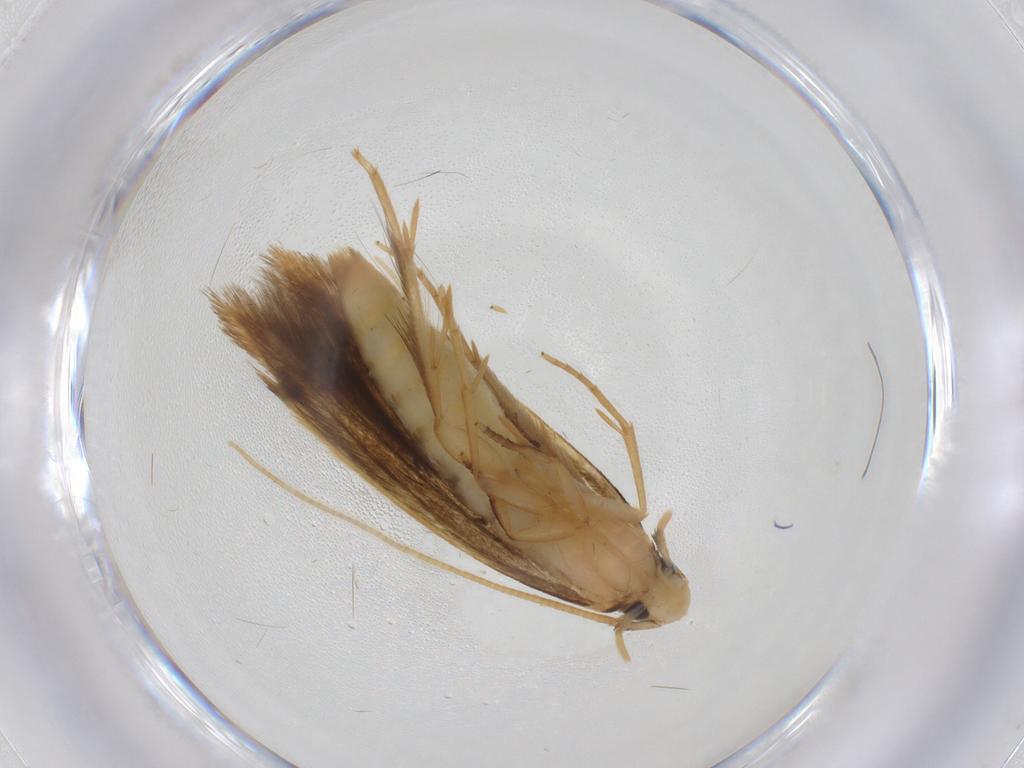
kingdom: Animalia
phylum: Arthropoda
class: Insecta
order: Lepidoptera
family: Tineidae
